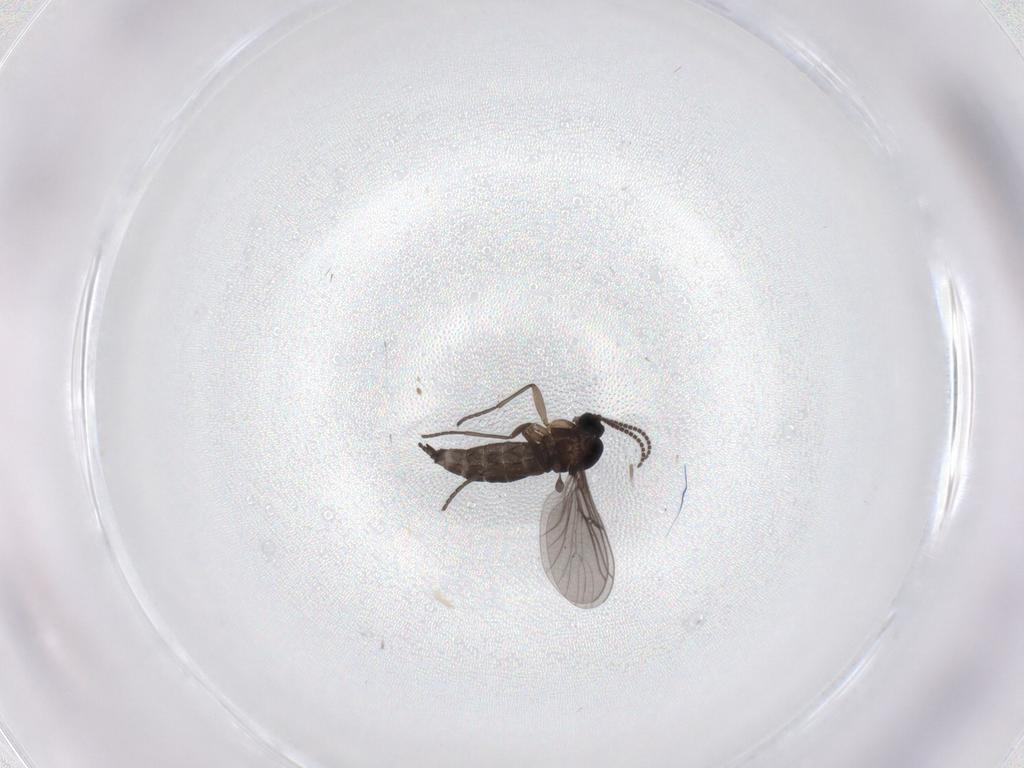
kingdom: Animalia
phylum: Arthropoda
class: Insecta
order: Diptera
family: Sciaridae
